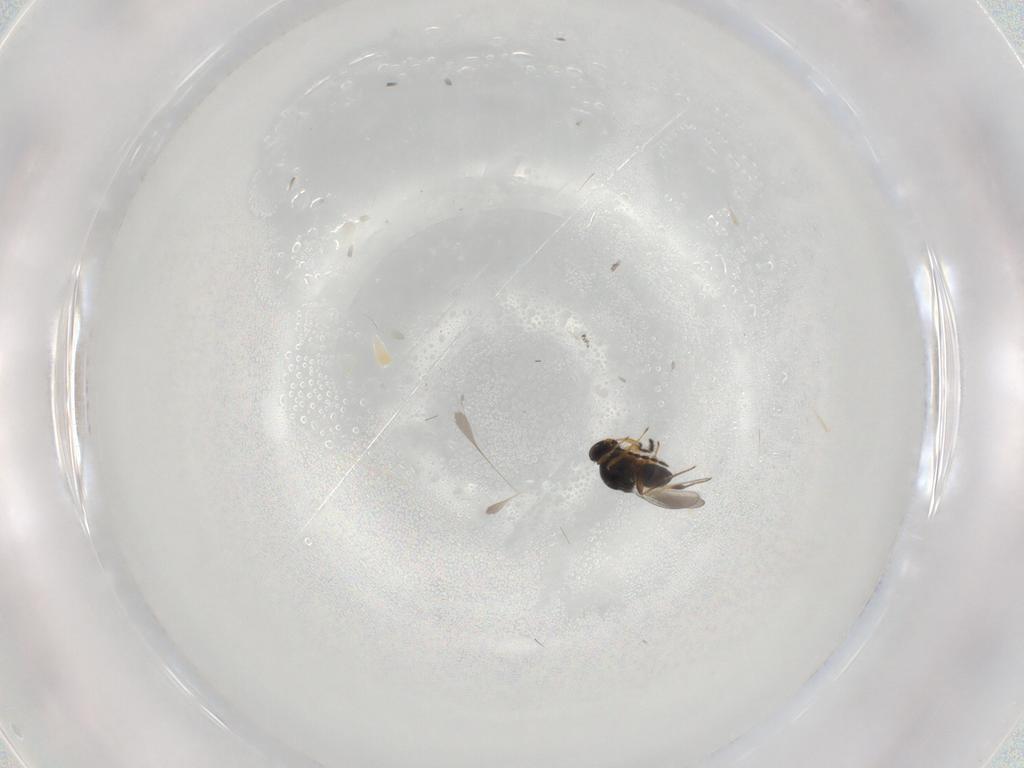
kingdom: Animalia
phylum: Arthropoda
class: Insecta
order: Hymenoptera
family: Platygastridae
